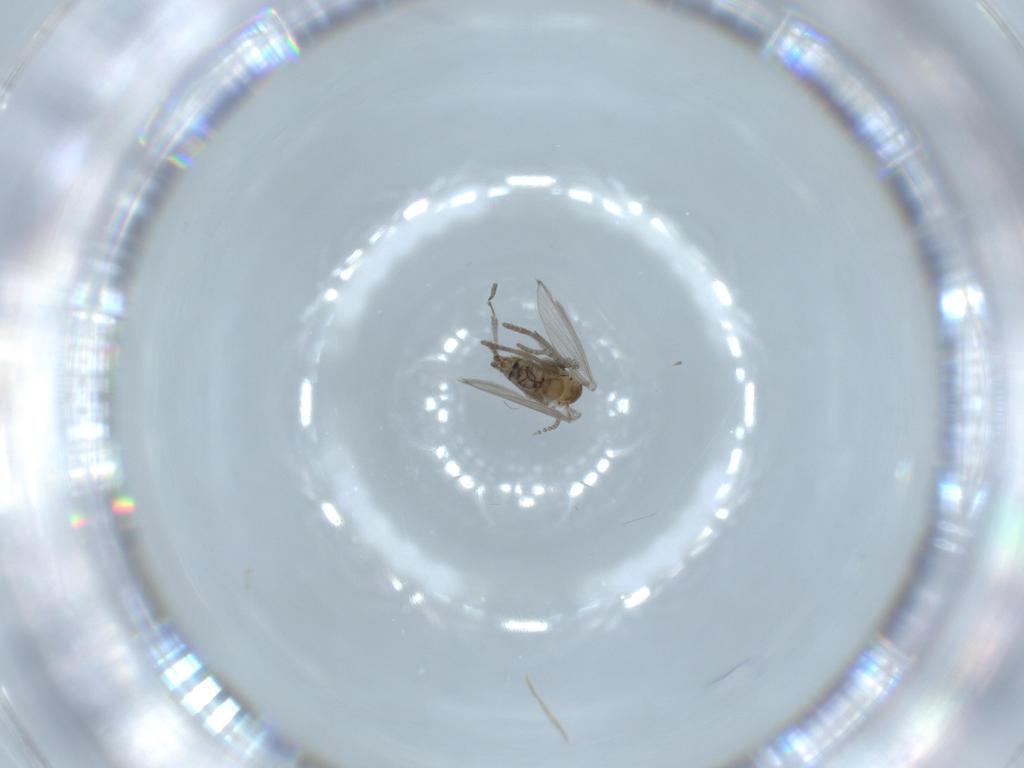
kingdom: Animalia
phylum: Arthropoda
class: Insecta
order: Diptera
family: Psychodidae
